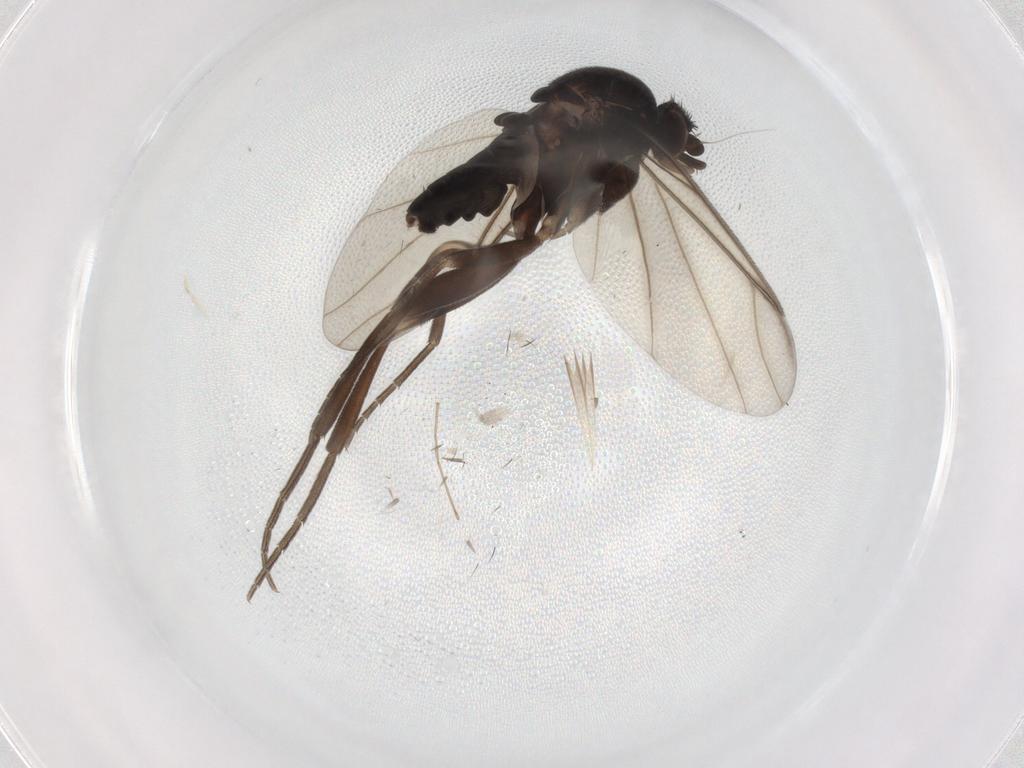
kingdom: Animalia
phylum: Arthropoda
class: Insecta
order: Diptera
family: Phoridae
